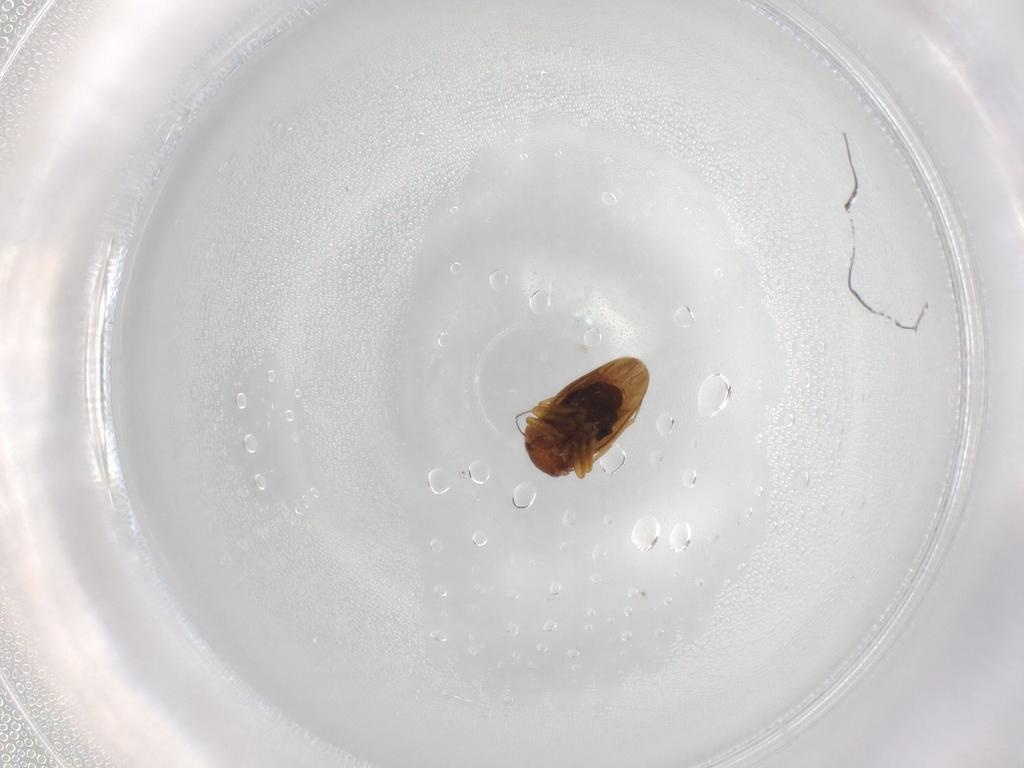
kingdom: Animalia
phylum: Arthropoda
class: Insecta
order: Hemiptera
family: Schizopteridae
